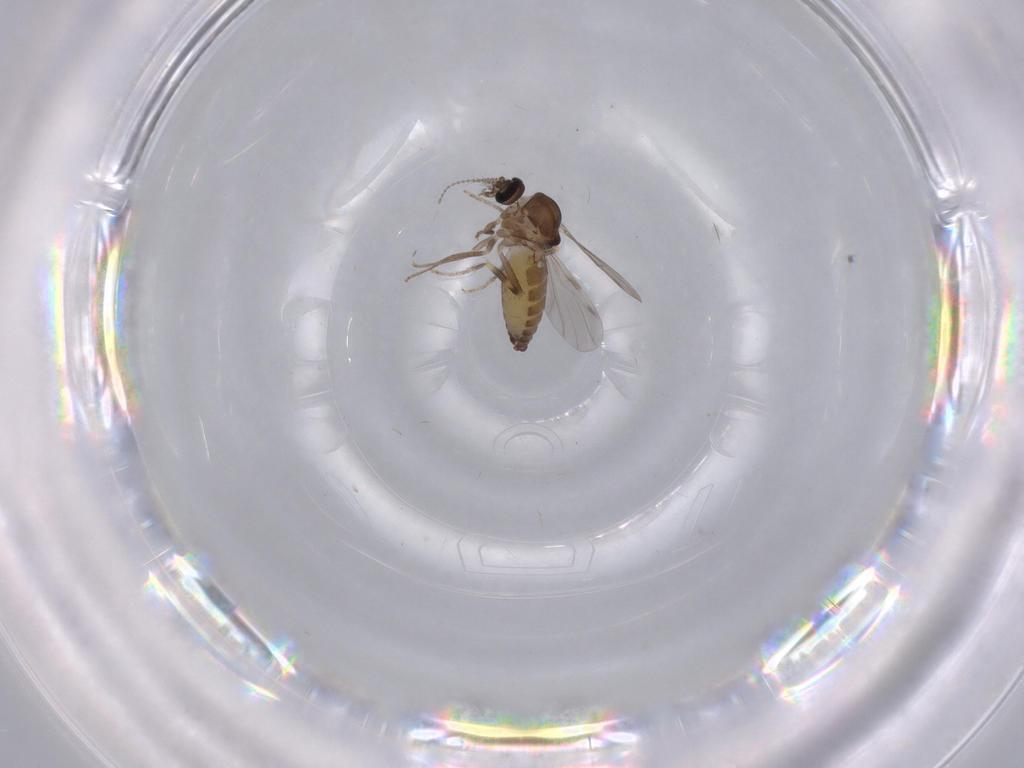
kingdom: Animalia
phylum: Arthropoda
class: Insecta
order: Diptera
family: Ceratopogonidae
